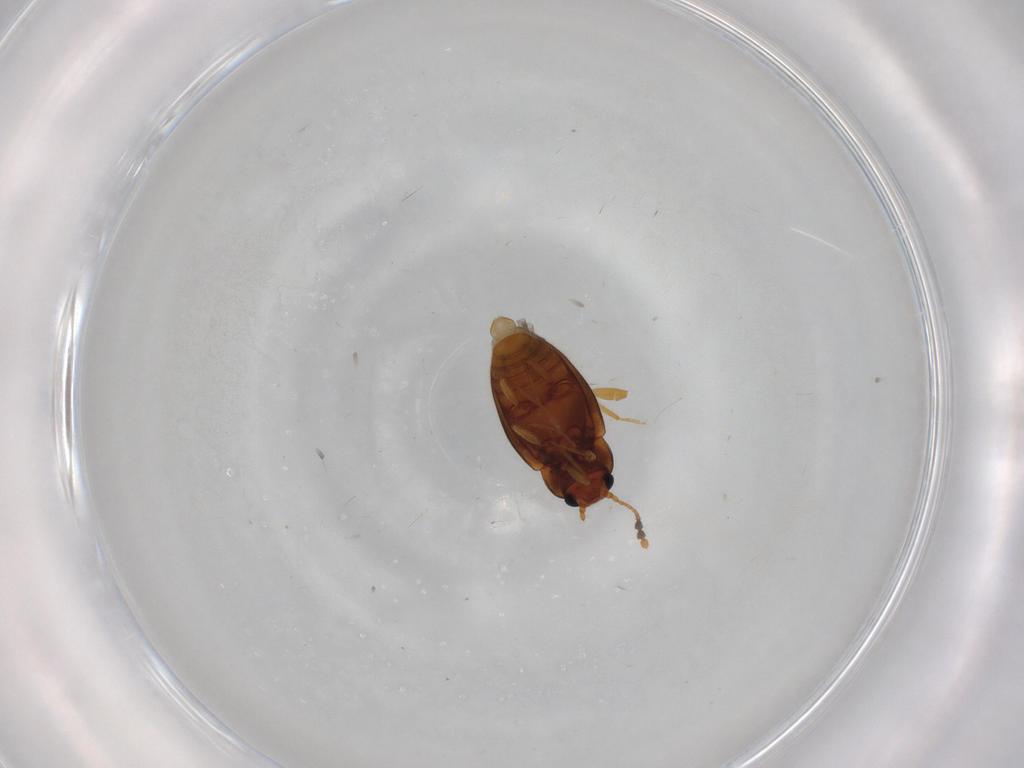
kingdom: Animalia
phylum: Arthropoda
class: Insecta
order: Coleoptera
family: Erotylidae
